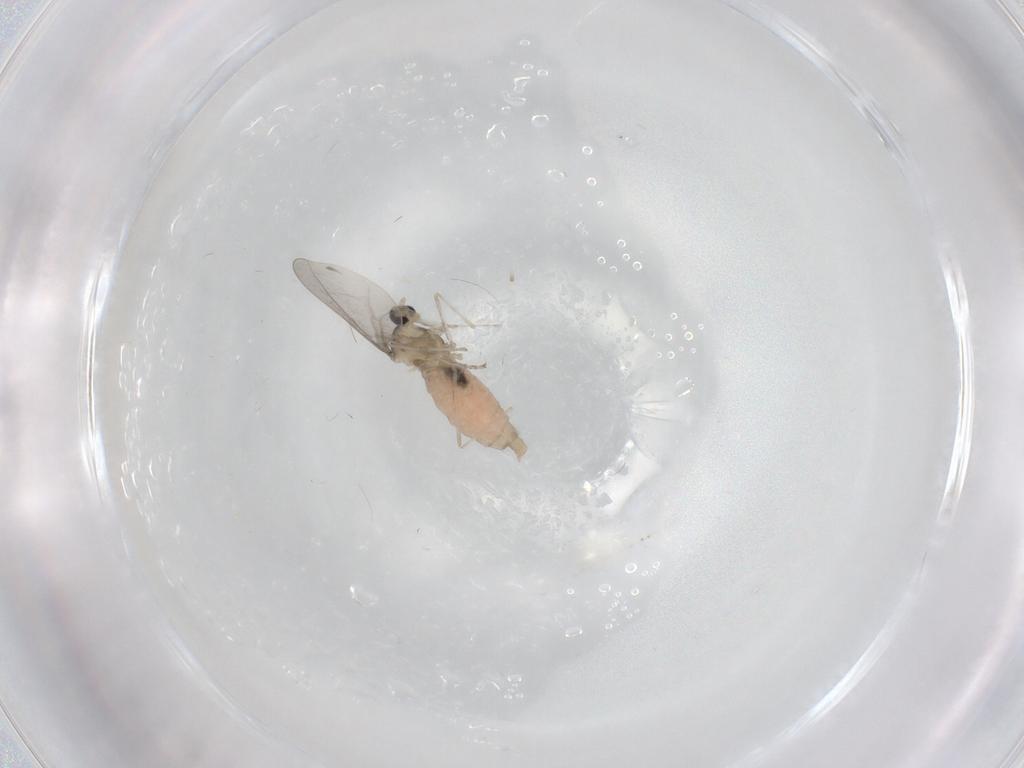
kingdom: Animalia
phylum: Arthropoda
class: Insecta
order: Diptera
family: Cecidomyiidae
